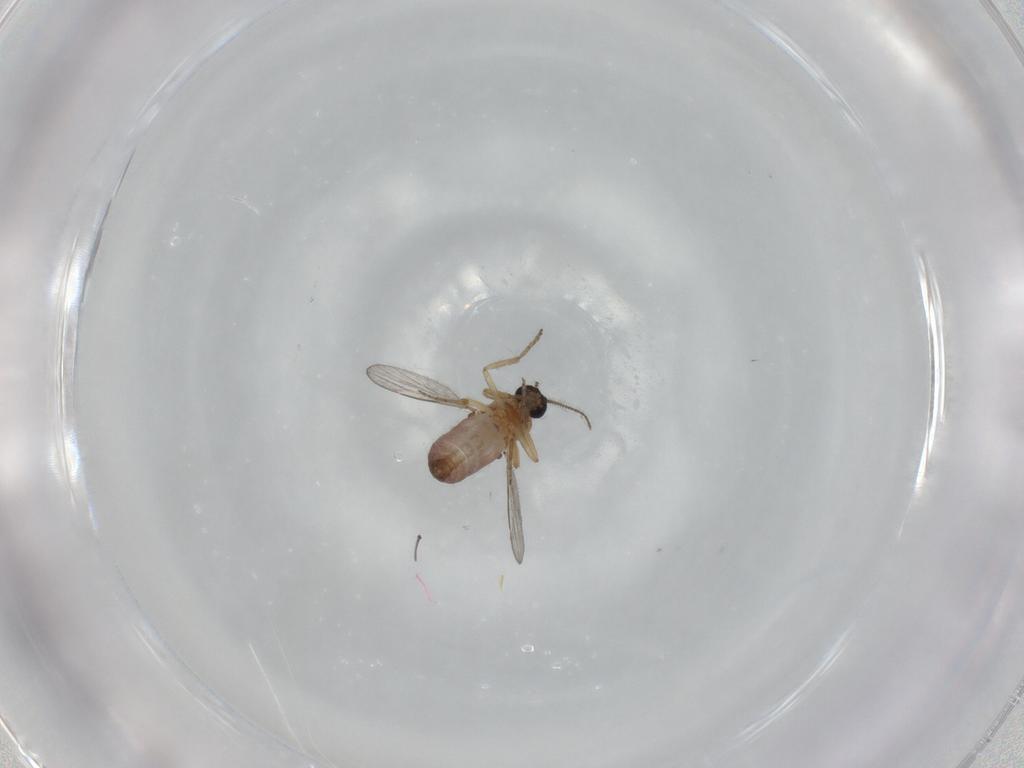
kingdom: Animalia
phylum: Arthropoda
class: Insecta
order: Diptera
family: Ceratopogonidae
